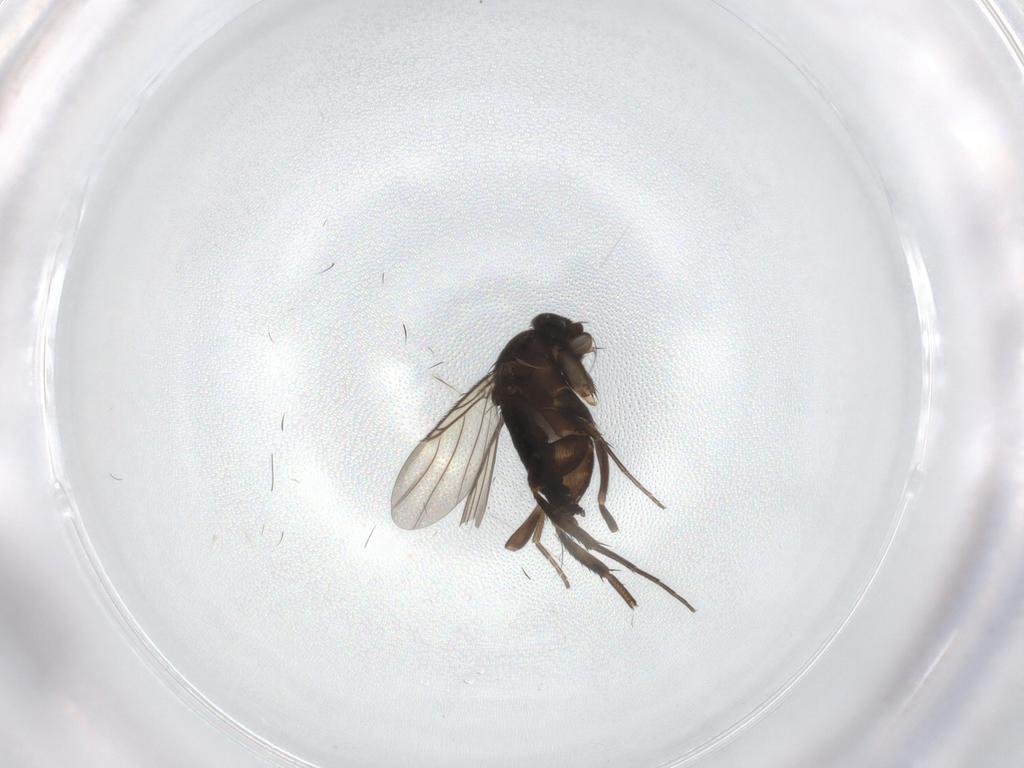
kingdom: Animalia
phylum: Arthropoda
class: Insecta
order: Diptera
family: Phoridae
